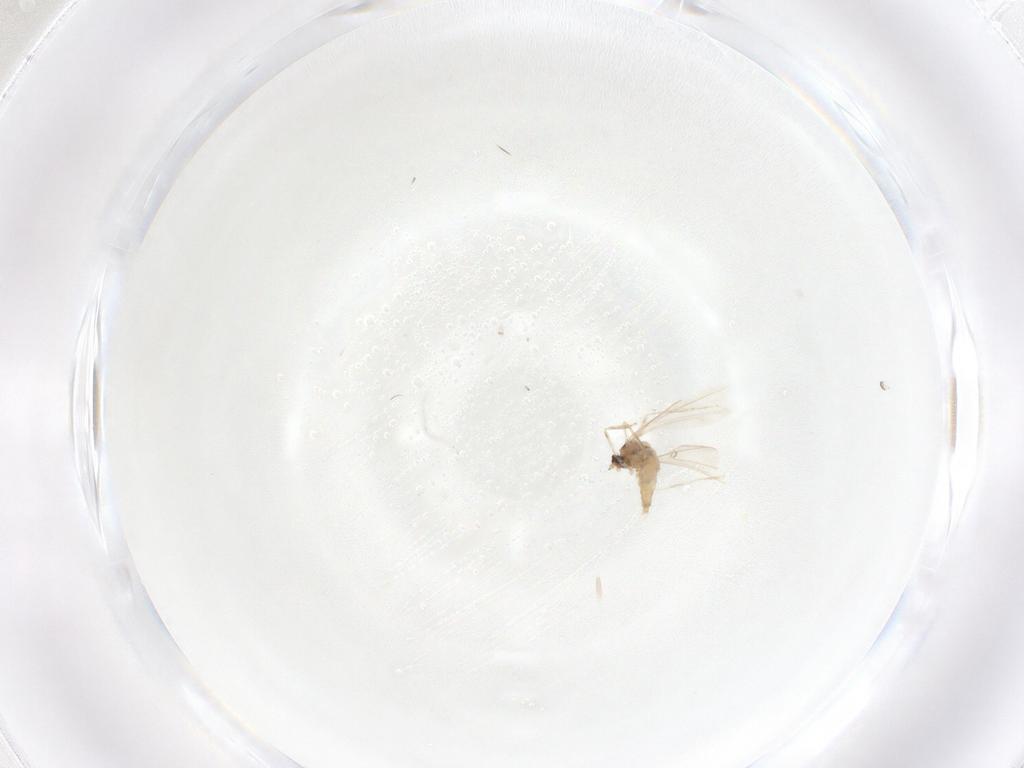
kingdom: Animalia
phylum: Arthropoda
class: Insecta
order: Diptera
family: Cecidomyiidae
